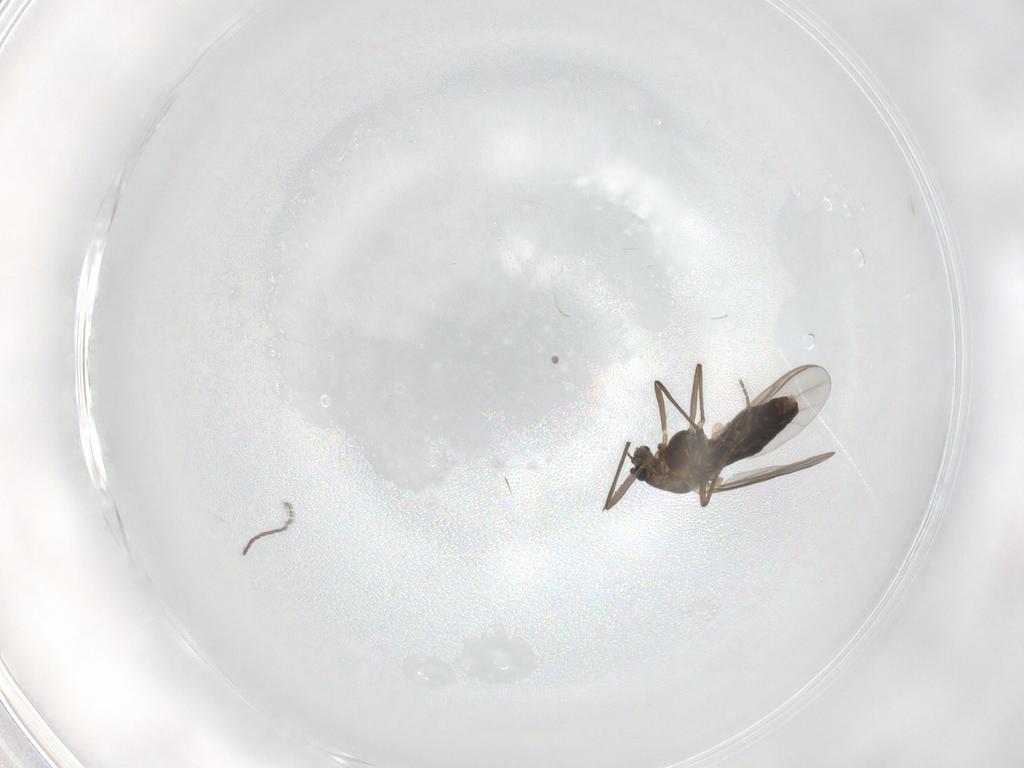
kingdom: Animalia
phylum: Arthropoda
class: Insecta
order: Diptera
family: Chironomidae
